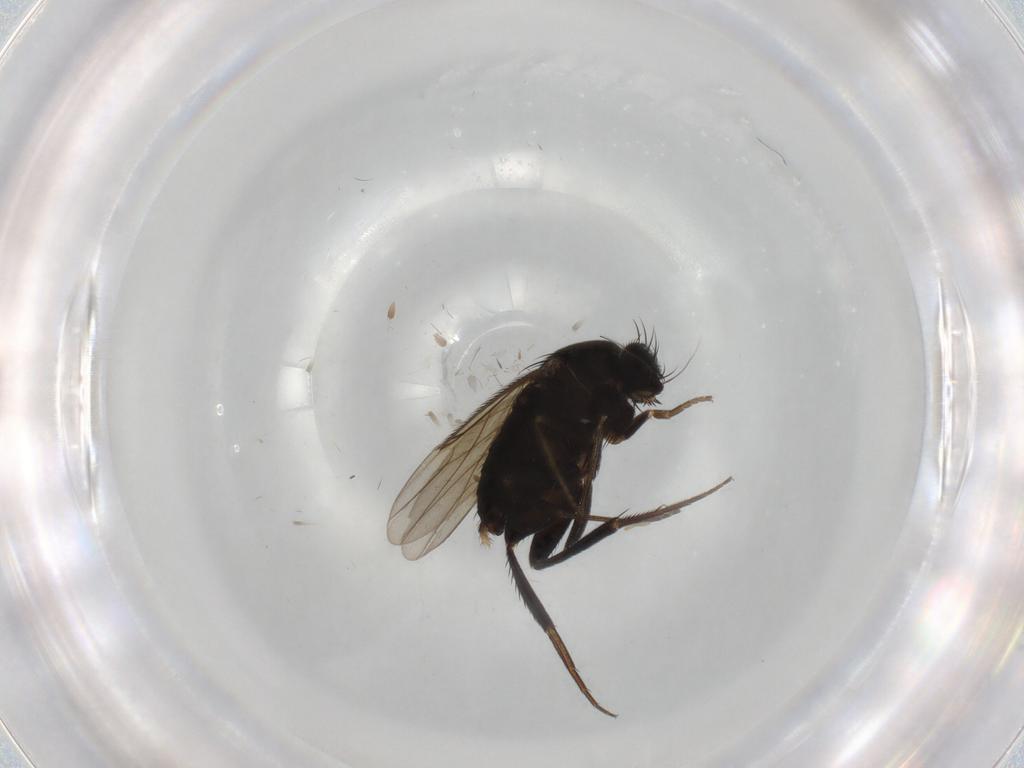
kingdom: Animalia
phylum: Arthropoda
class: Insecta
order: Diptera
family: Phoridae
